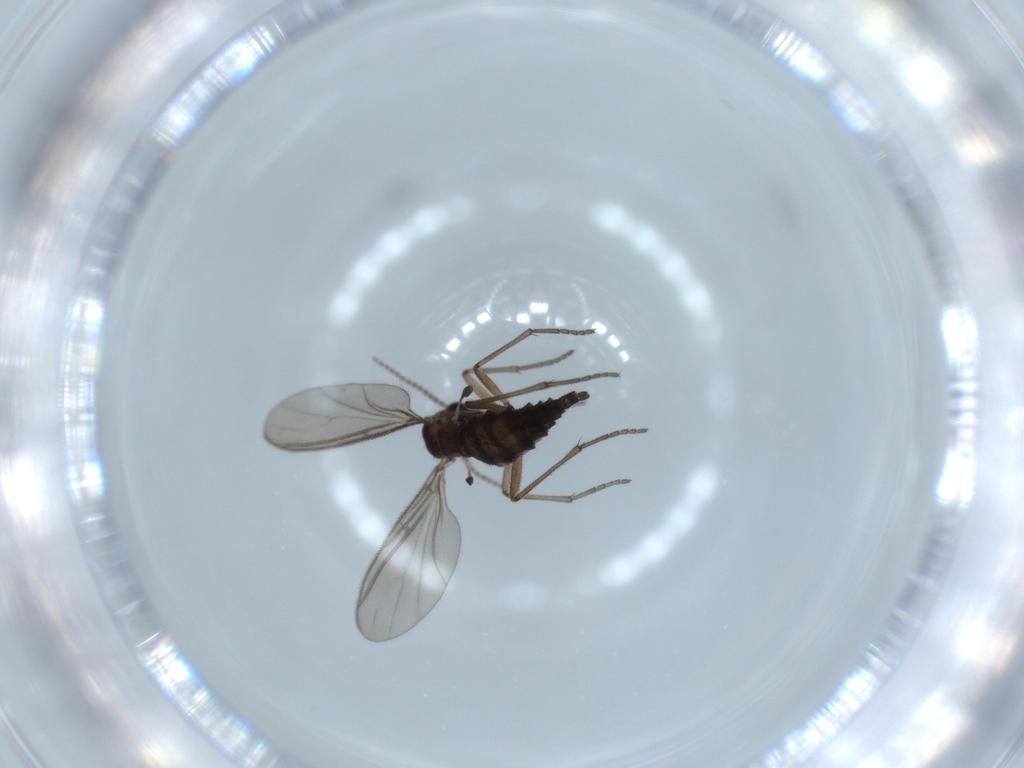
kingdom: Animalia
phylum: Arthropoda
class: Insecta
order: Diptera
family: Sciaridae
